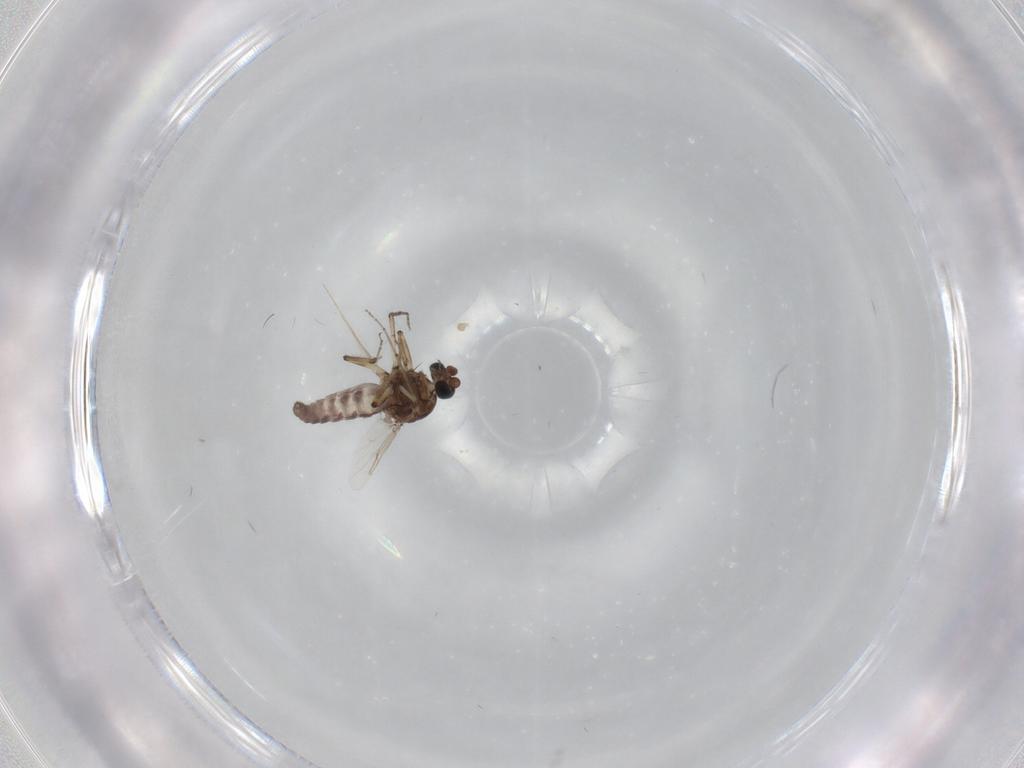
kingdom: Animalia
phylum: Arthropoda
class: Insecta
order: Diptera
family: Ceratopogonidae
